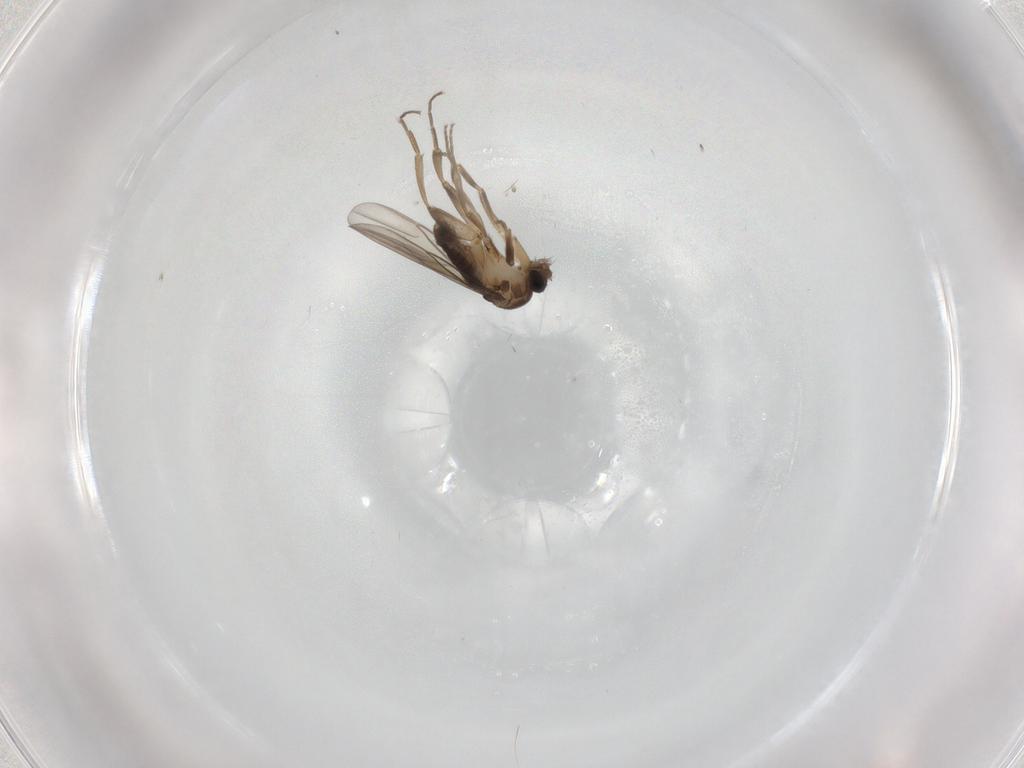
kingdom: Animalia
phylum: Arthropoda
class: Insecta
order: Diptera
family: Phoridae
